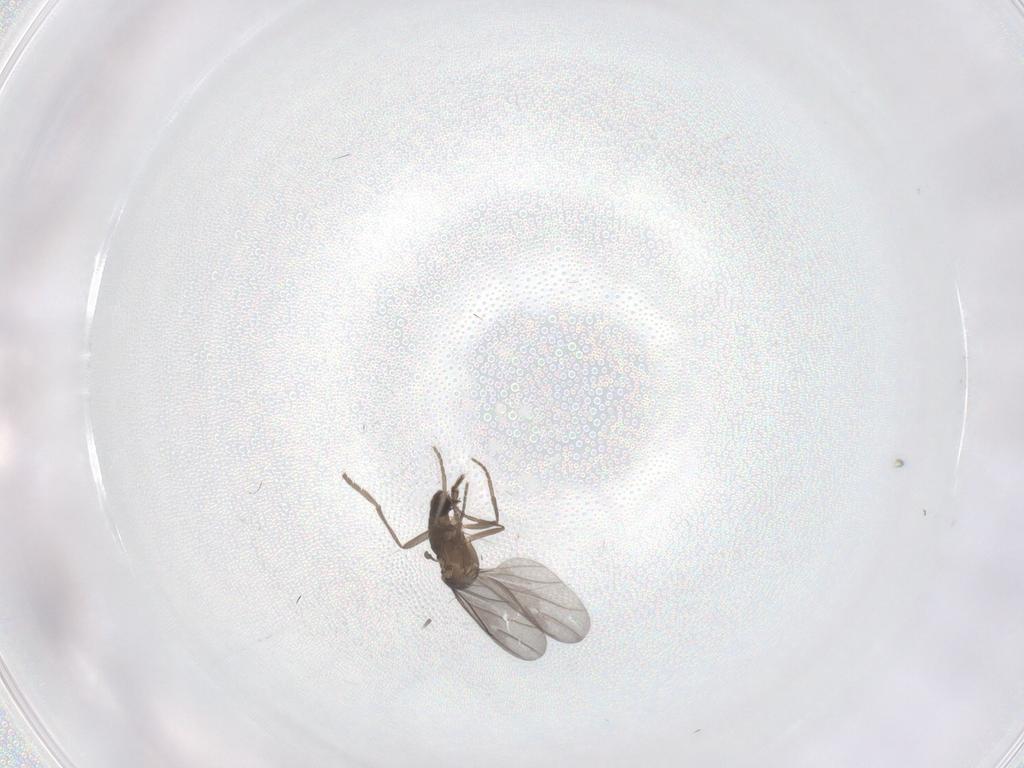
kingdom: Animalia
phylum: Arthropoda
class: Insecta
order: Diptera
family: Phoridae
